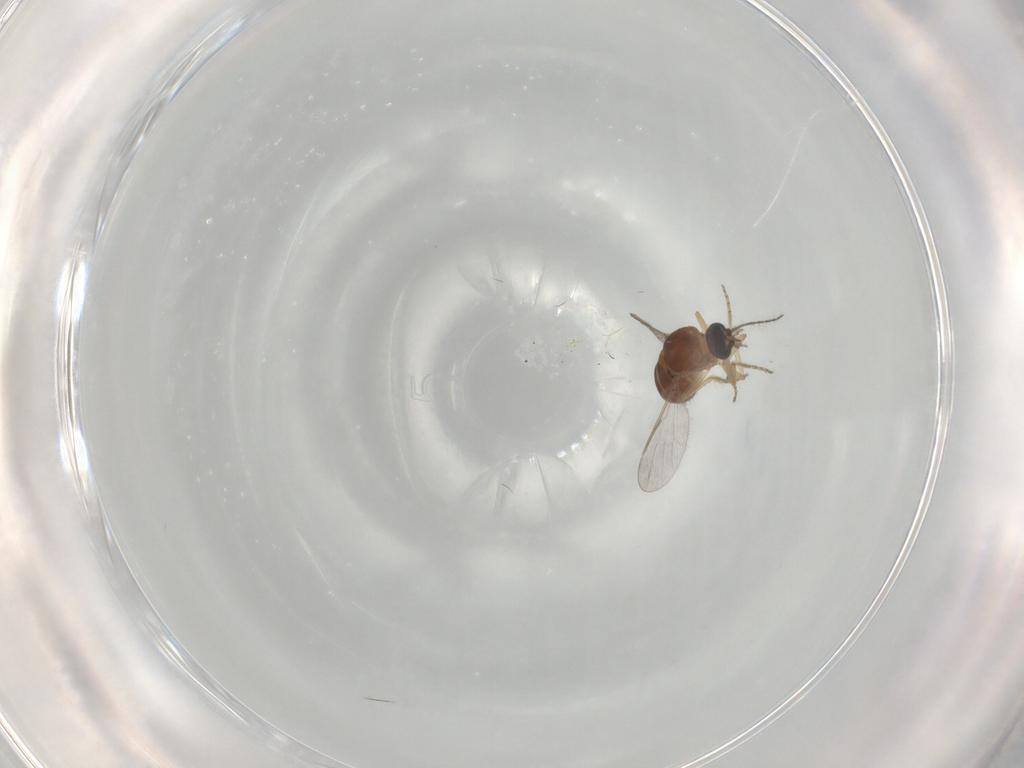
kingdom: Animalia
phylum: Arthropoda
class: Insecta
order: Diptera
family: Ceratopogonidae
